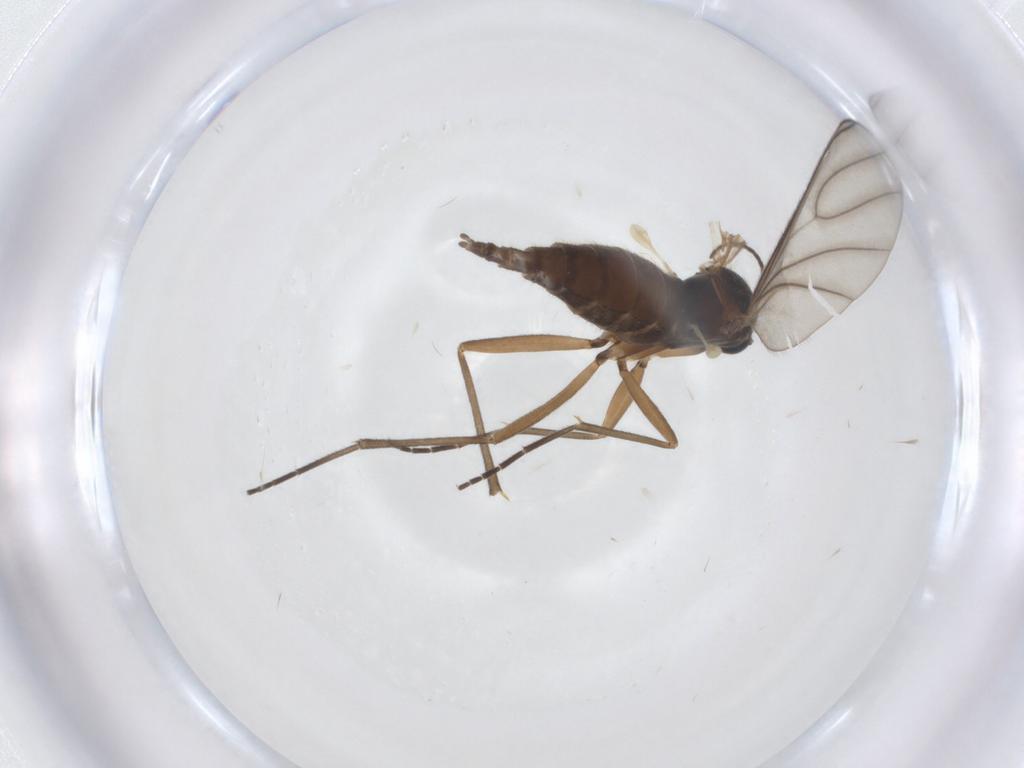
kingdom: Animalia
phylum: Arthropoda
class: Insecta
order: Diptera
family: Sciaridae
